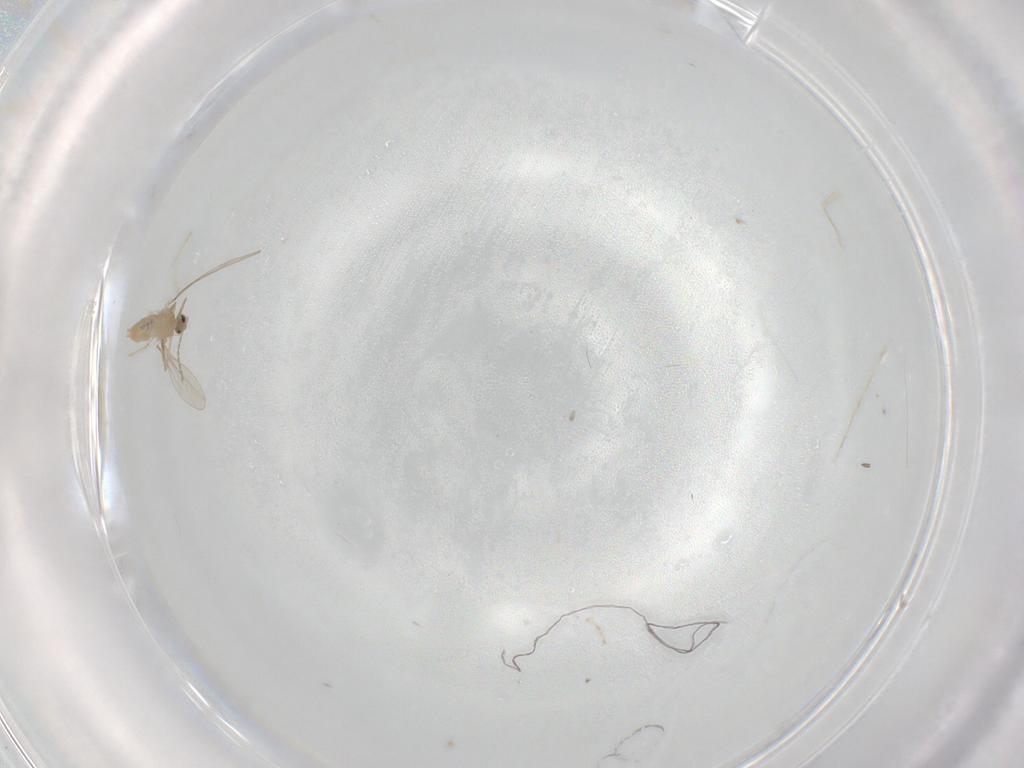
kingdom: Animalia
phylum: Arthropoda
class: Insecta
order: Diptera
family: Cecidomyiidae
